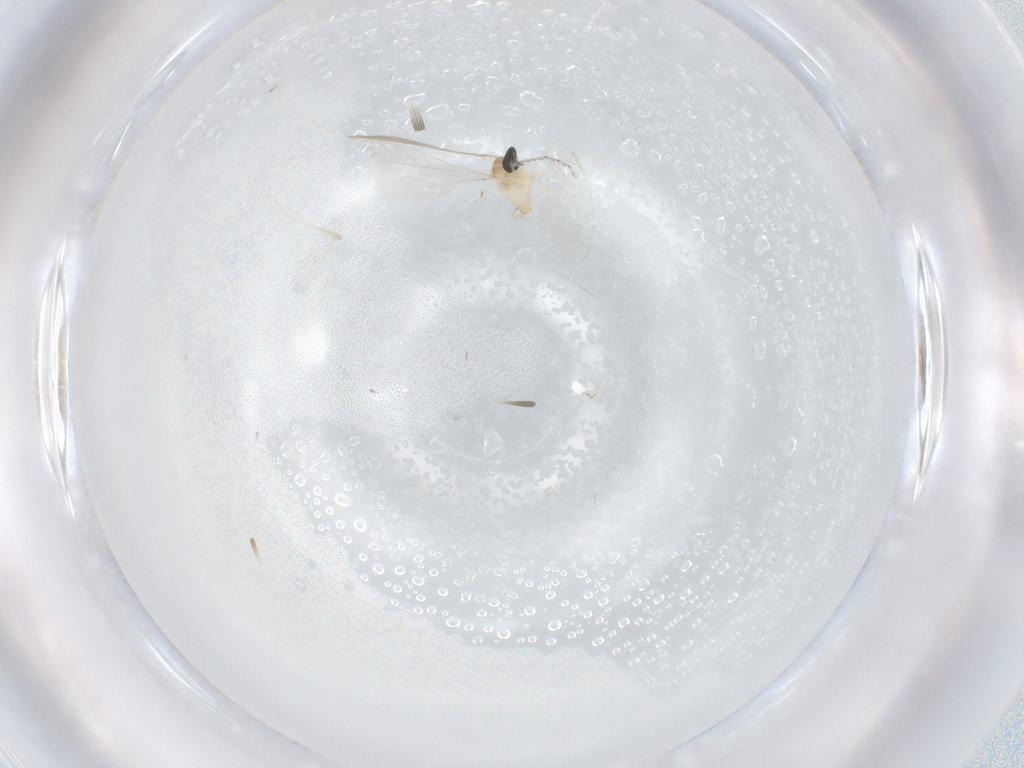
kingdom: Animalia
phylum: Arthropoda
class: Insecta
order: Diptera
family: Cecidomyiidae
